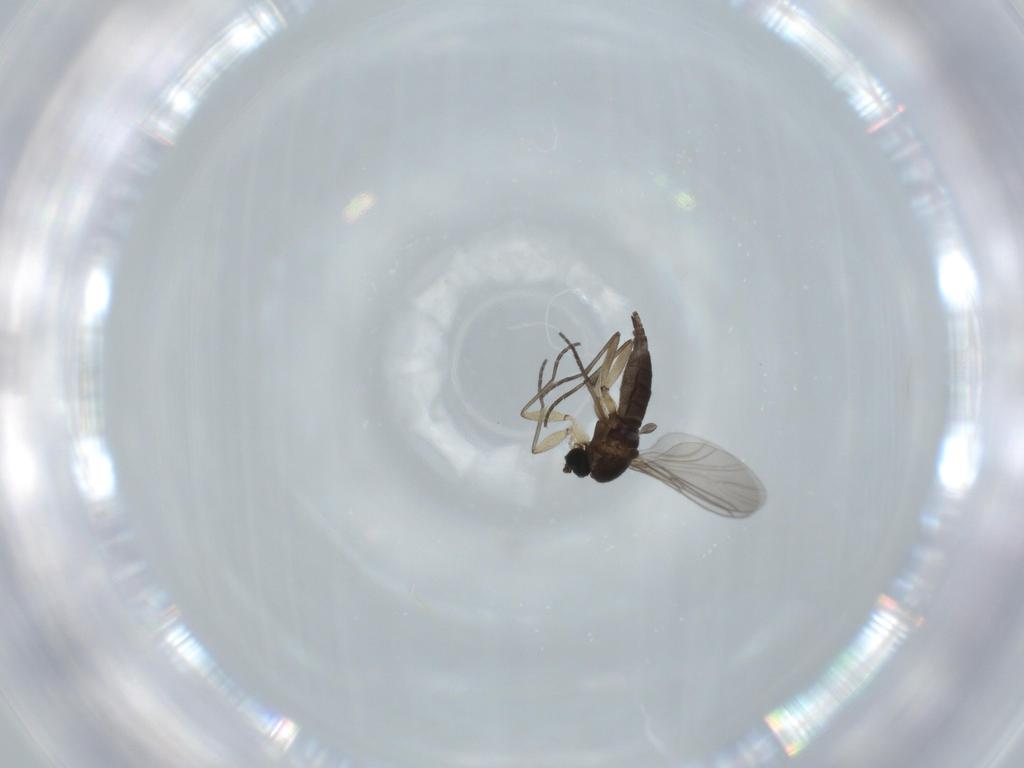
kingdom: Animalia
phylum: Arthropoda
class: Insecta
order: Diptera
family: Sciaridae
